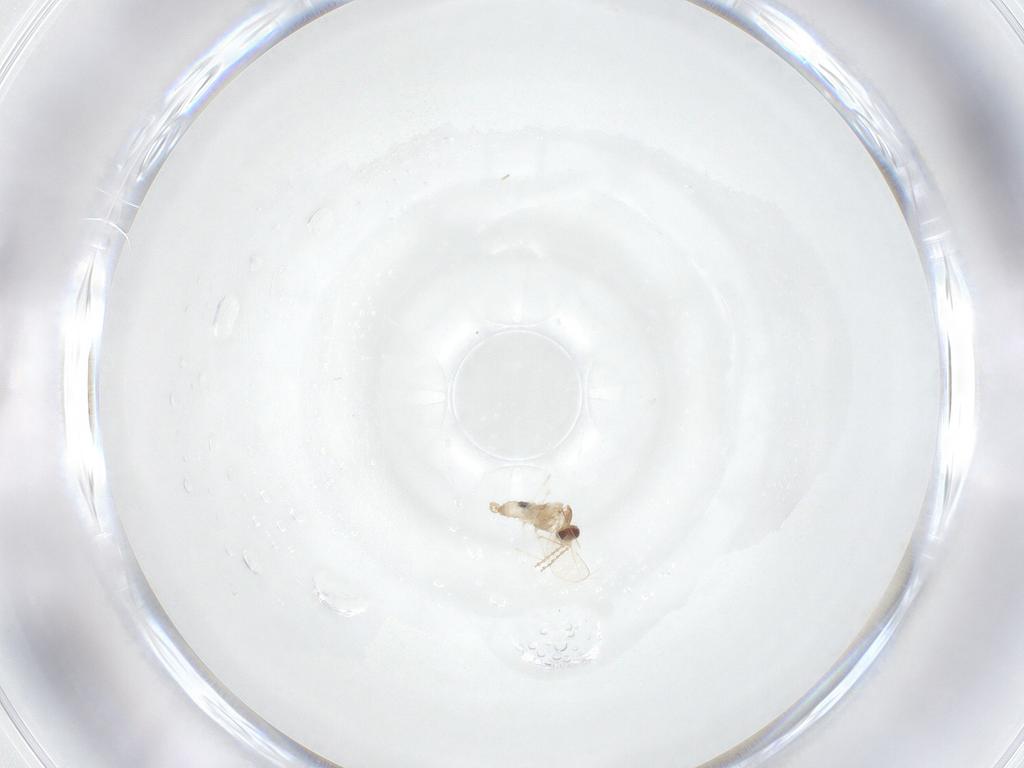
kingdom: Animalia
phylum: Arthropoda
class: Insecta
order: Diptera
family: Cecidomyiidae
